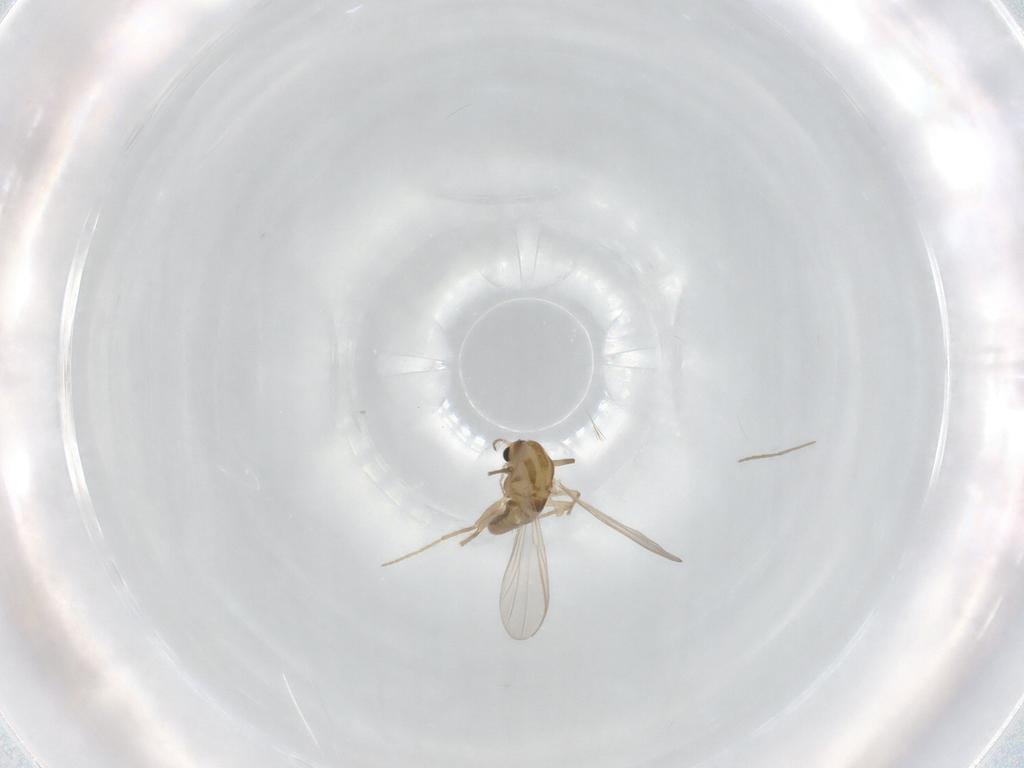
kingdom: Animalia
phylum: Arthropoda
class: Insecta
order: Diptera
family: Chironomidae
